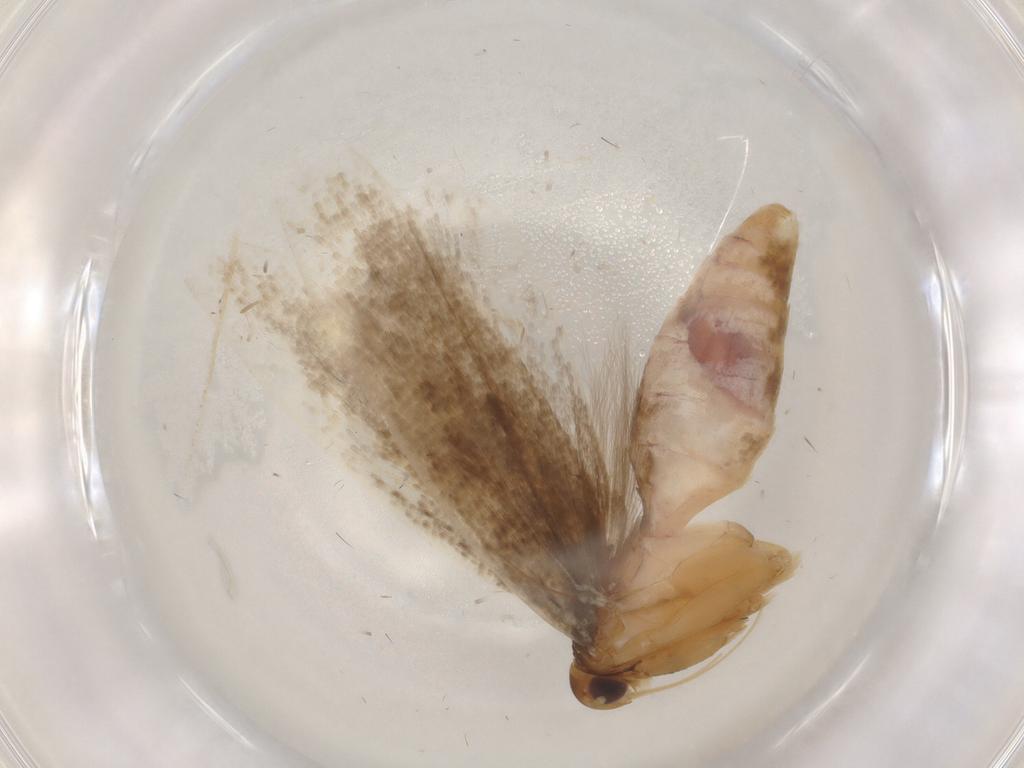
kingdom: Animalia
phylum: Arthropoda
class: Insecta
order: Lepidoptera
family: Gelechiidae
